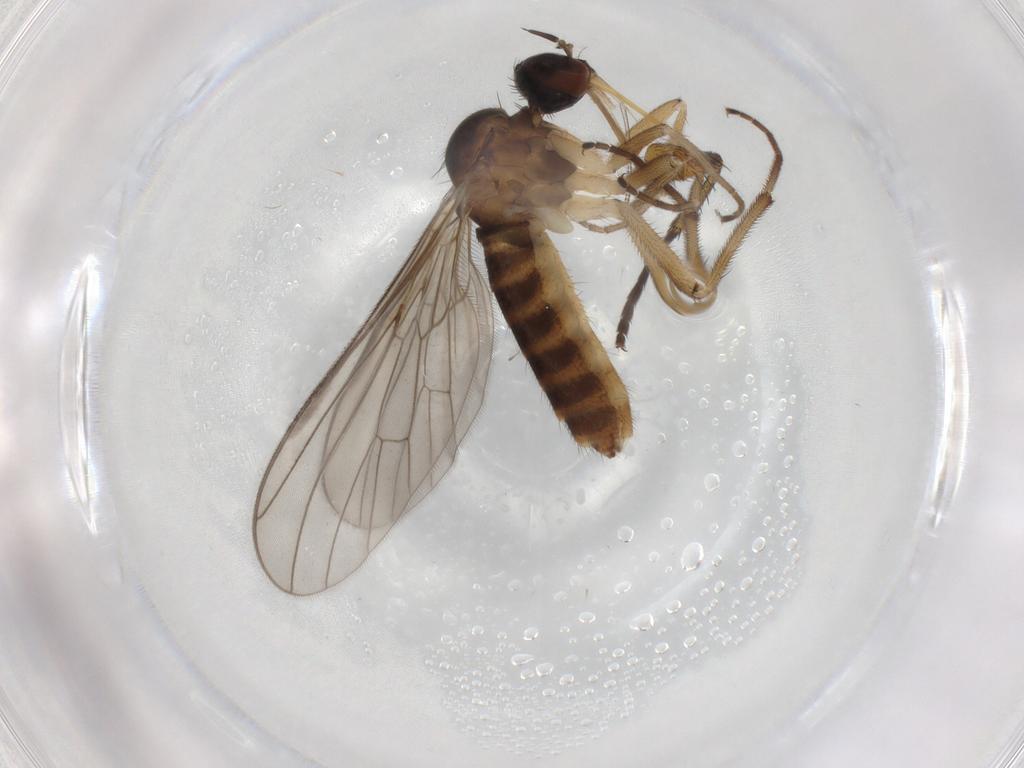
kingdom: Animalia
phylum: Arthropoda
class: Insecta
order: Diptera
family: Empididae
